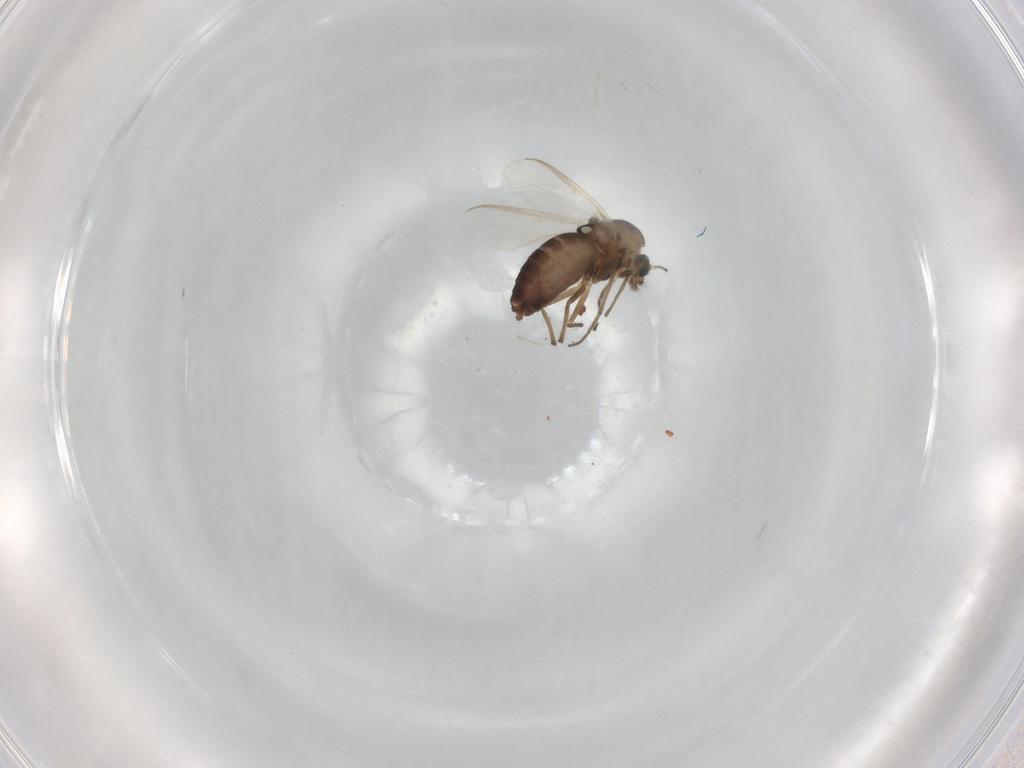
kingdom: Animalia
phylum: Arthropoda
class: Insecta
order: Diptera
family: Chironomidae
